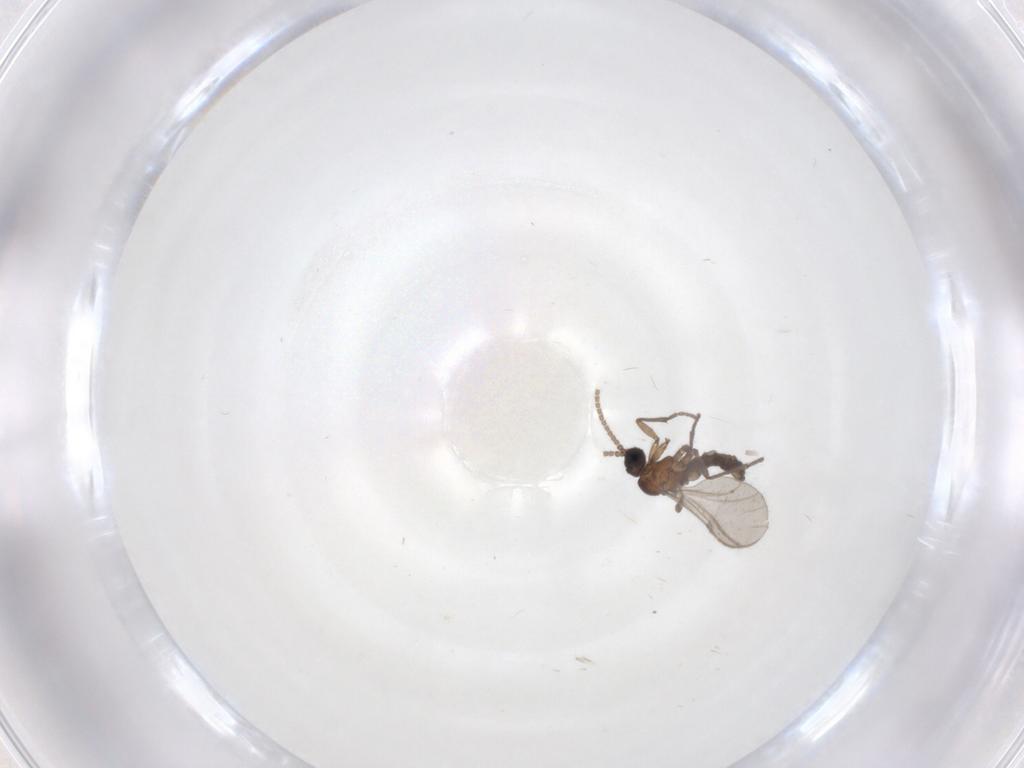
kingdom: Animalia
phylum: Arthropoda
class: Insecta
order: Diptera
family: Sciaridae
